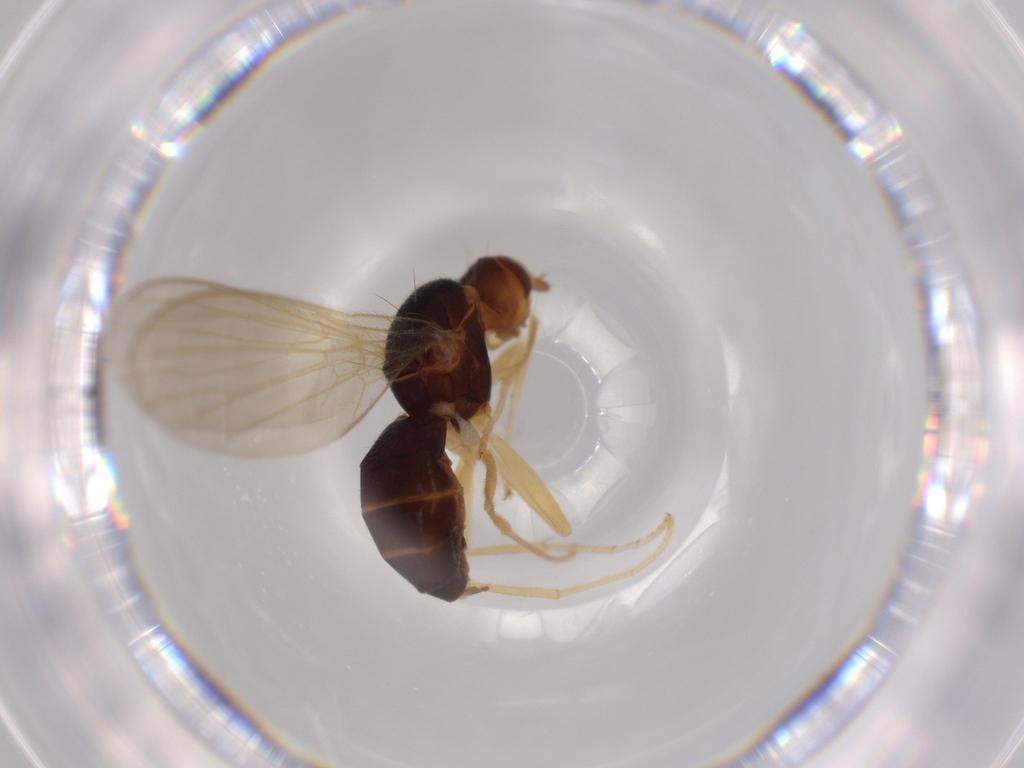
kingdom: Animalia
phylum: Arthropoda
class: Insecta
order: Diptera
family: Psilidae
